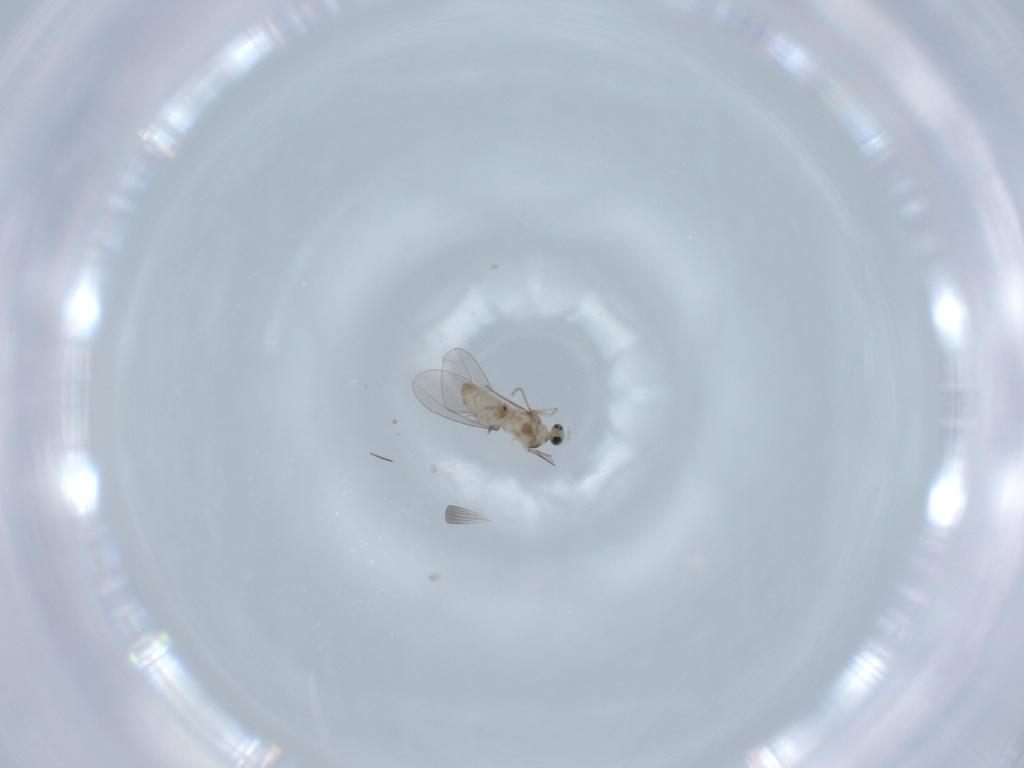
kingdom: Animalia
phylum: Arthropoda
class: Insecta
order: Diptera
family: Cecidomyiidae
